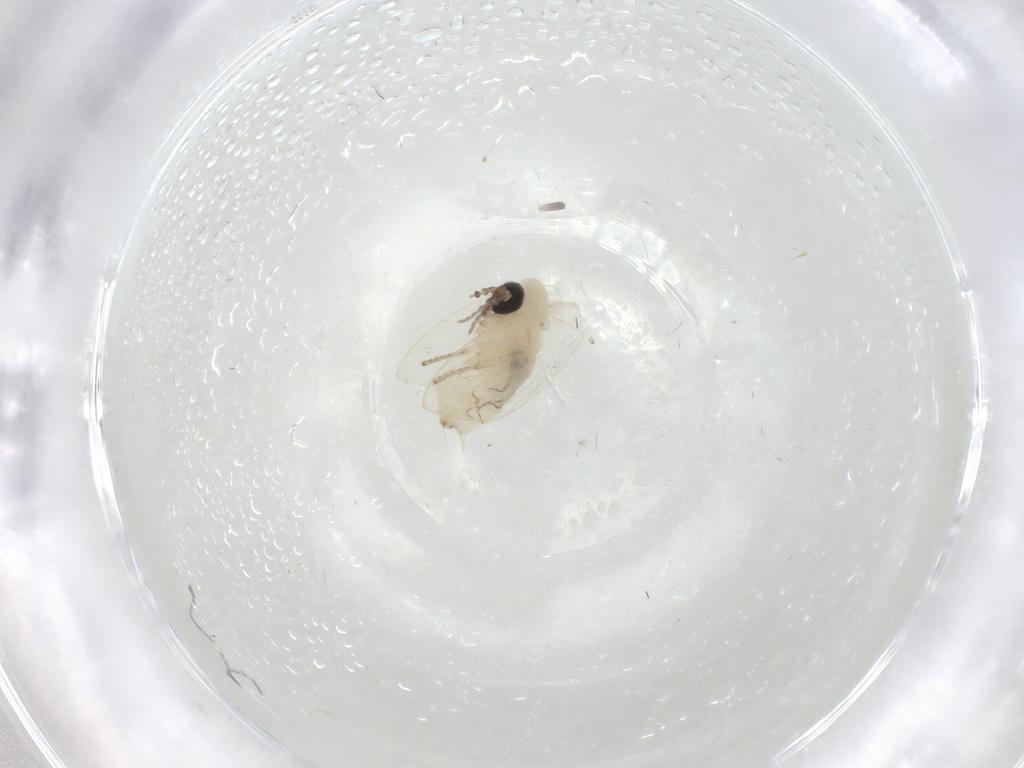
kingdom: Animalia
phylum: Arthropoda
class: Insecta
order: Diptera
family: Psychodidae
